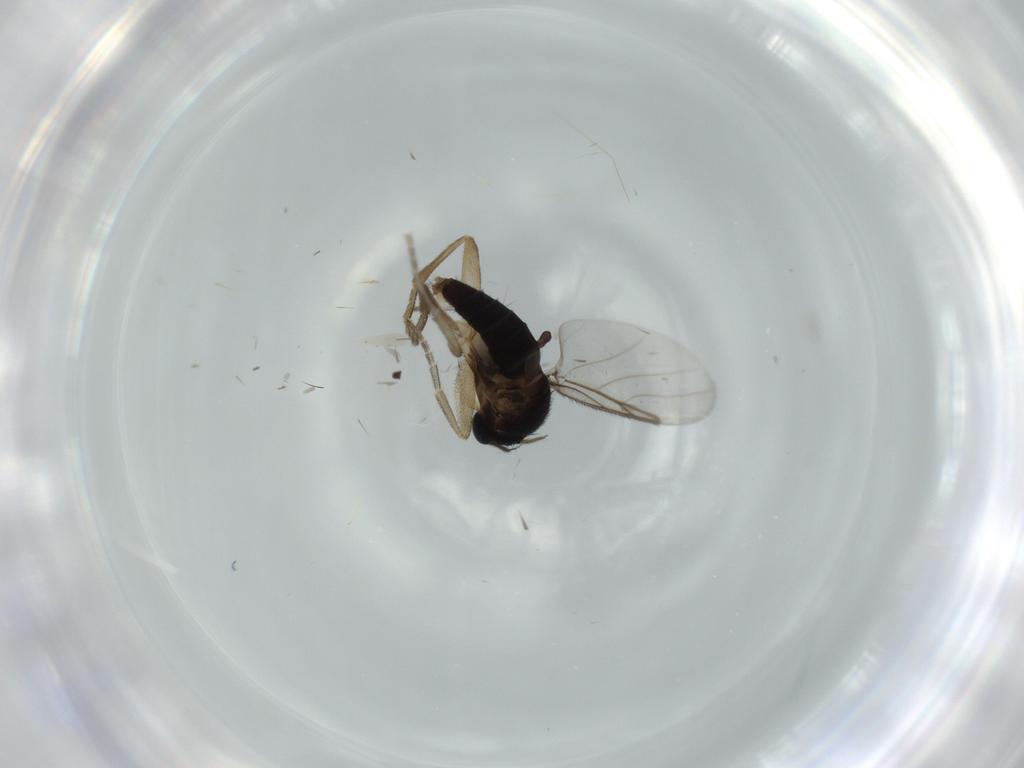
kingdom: Animalia
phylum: Arthropoda
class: Insecta
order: Diptera
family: Phoridae
